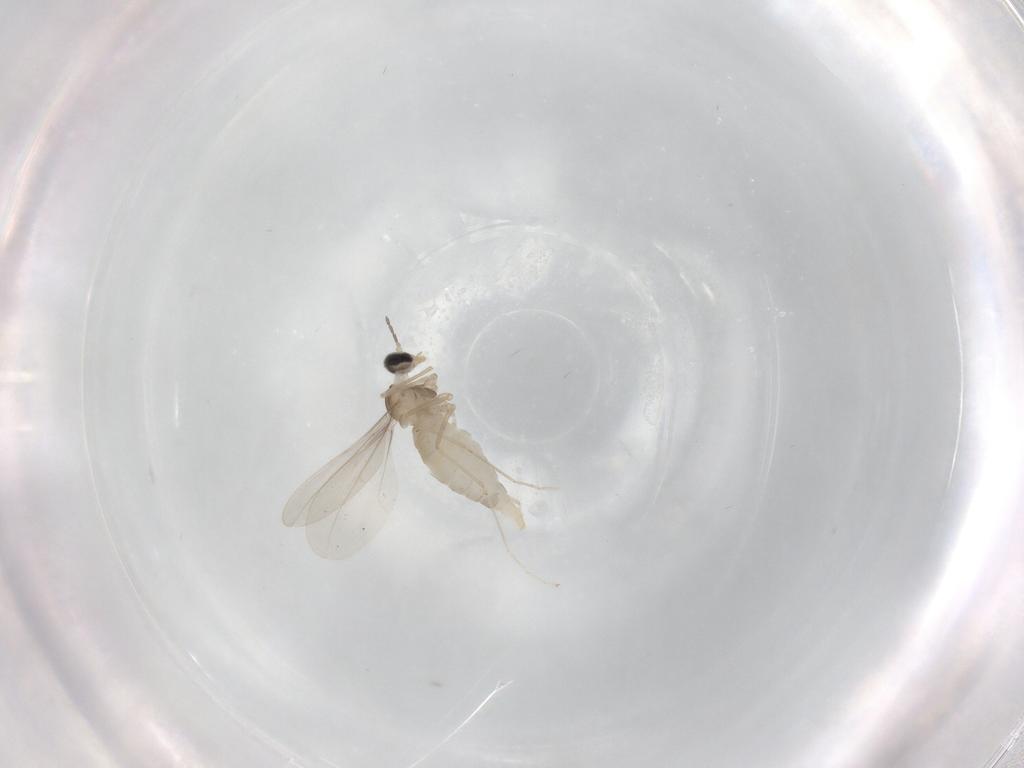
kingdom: Animalia
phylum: Arthropoda
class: Insecta
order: Diptera
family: Cecidomyiidae
